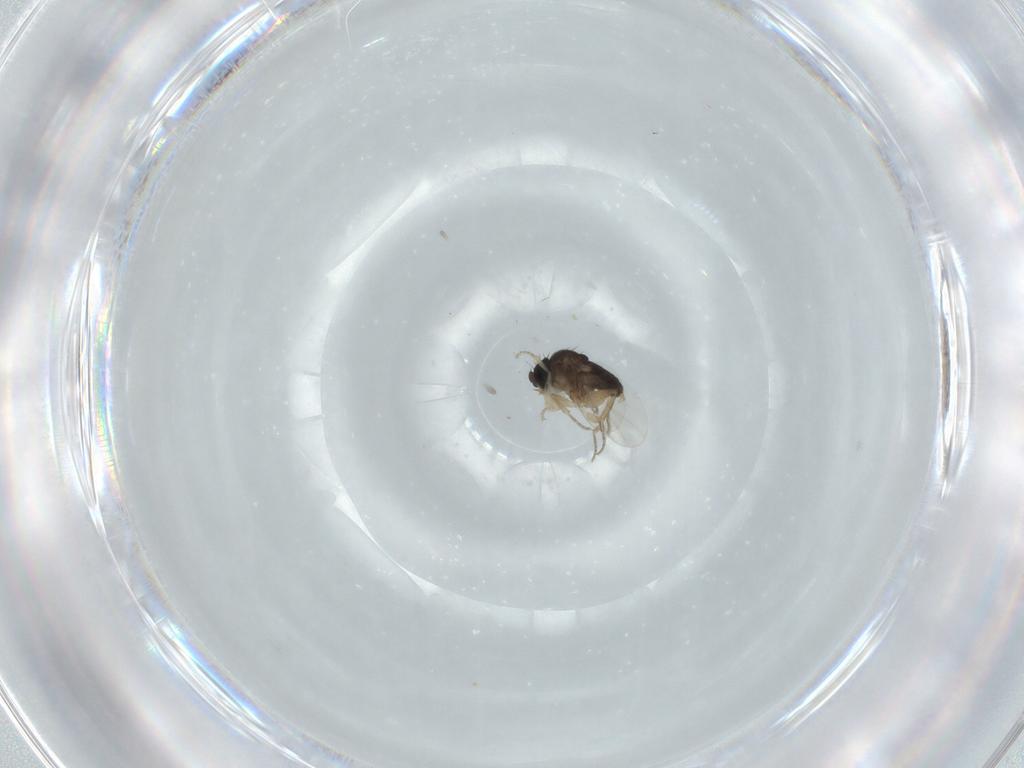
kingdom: Animalia
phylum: Arthropoda
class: Insecta
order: Diptera
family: Phoridae
